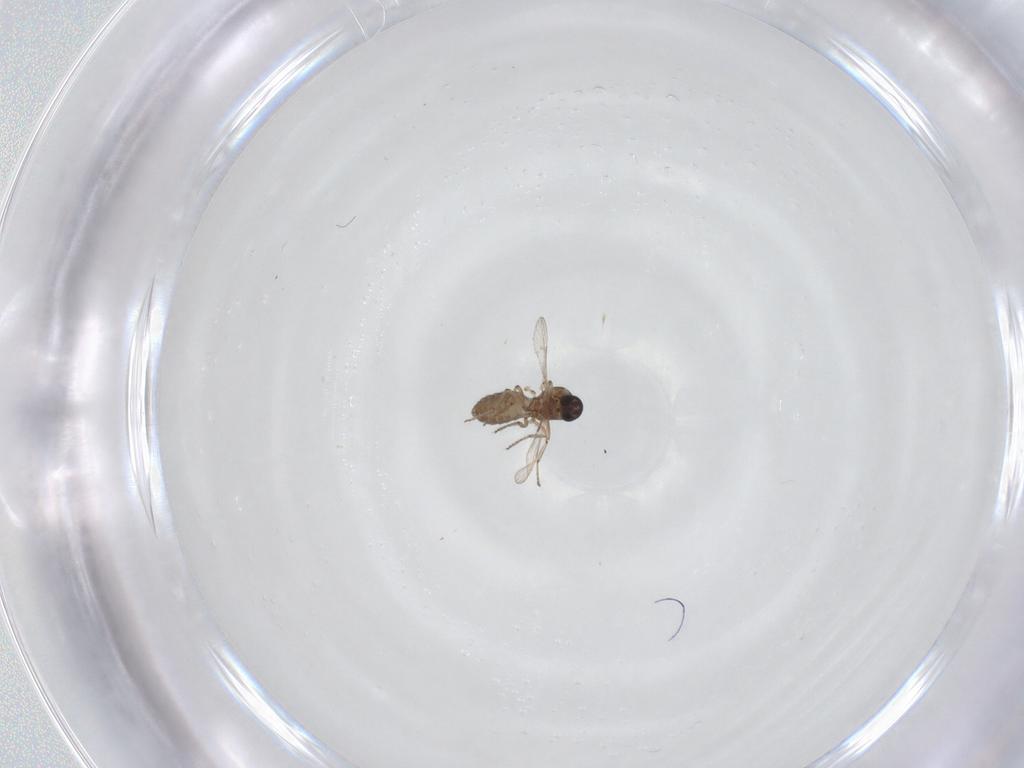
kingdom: Animalia
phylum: Arthropoda
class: Insecta
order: Diptera
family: Ceratopogonidae
